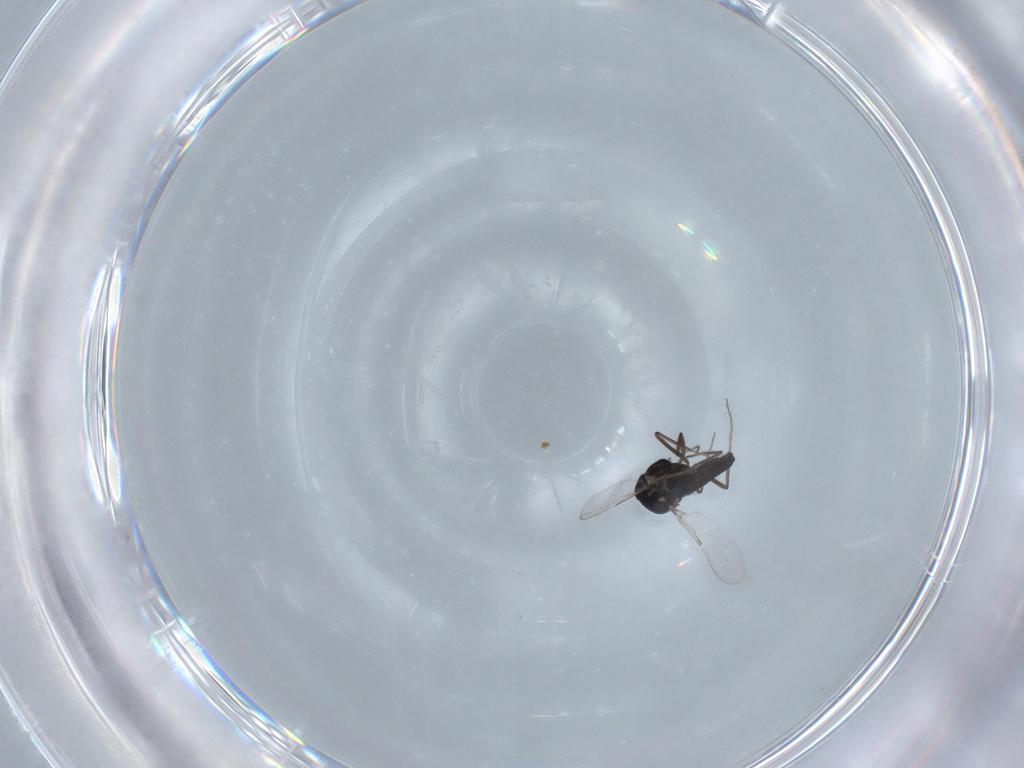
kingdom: Animalia
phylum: Arthropoda
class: Insecta
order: Diptera
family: Ceratopogonidae
